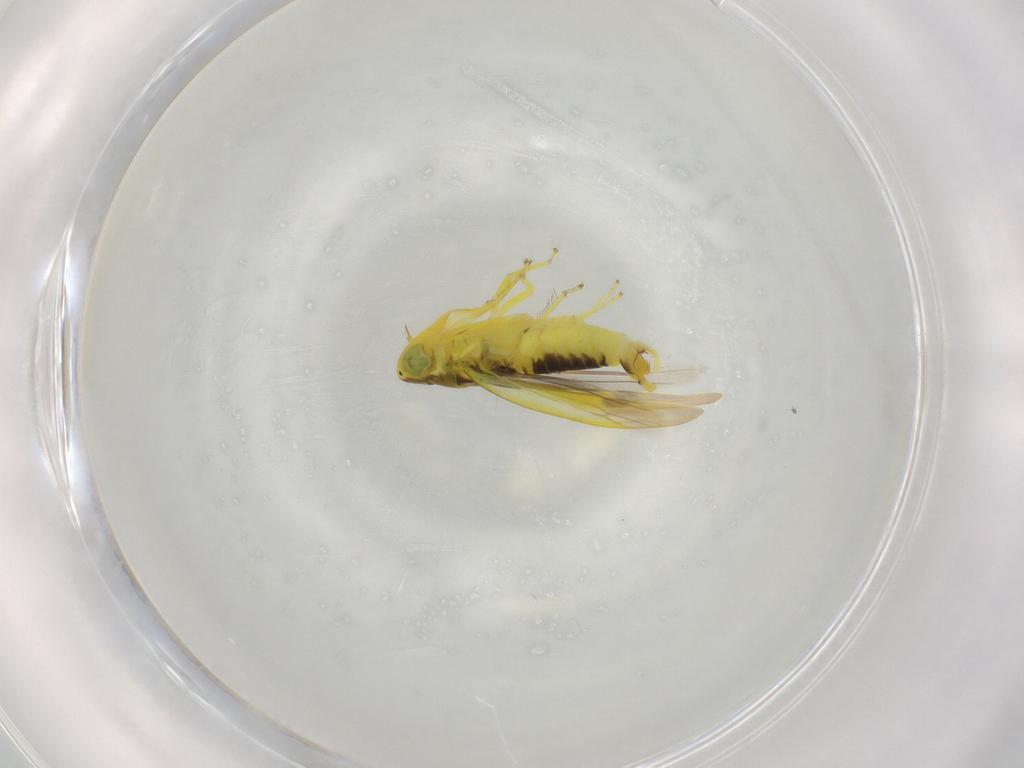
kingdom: Animalia
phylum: Arthropoda
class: Insecta
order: Hemiptera
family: Cicadellidae
